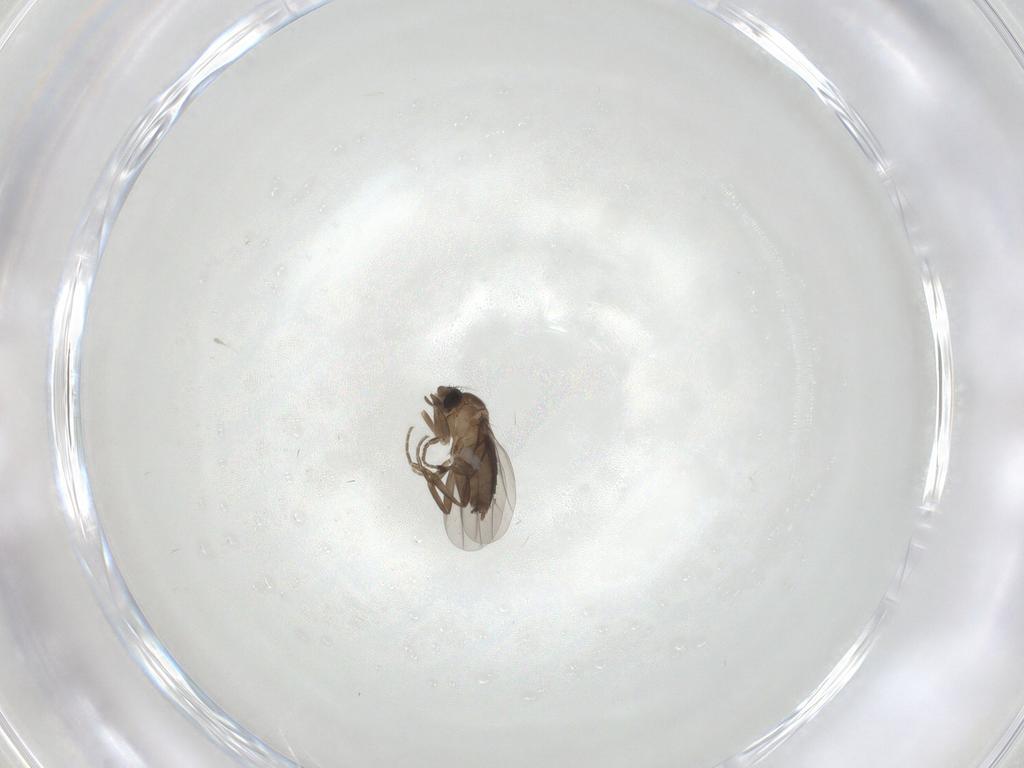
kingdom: Animalia
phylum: Arthropoda
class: Insecta
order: Diptera
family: Phoridae
